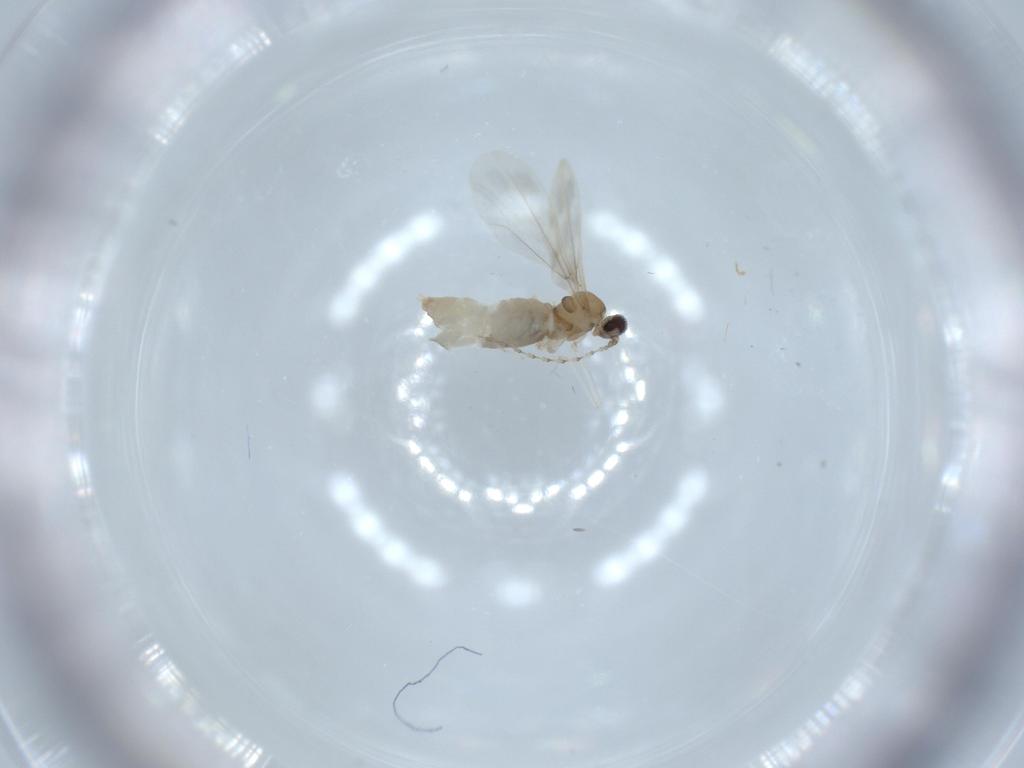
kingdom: Animalia
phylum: Arthropoda
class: Insecta
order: Diptera
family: Cecidomyiidae
